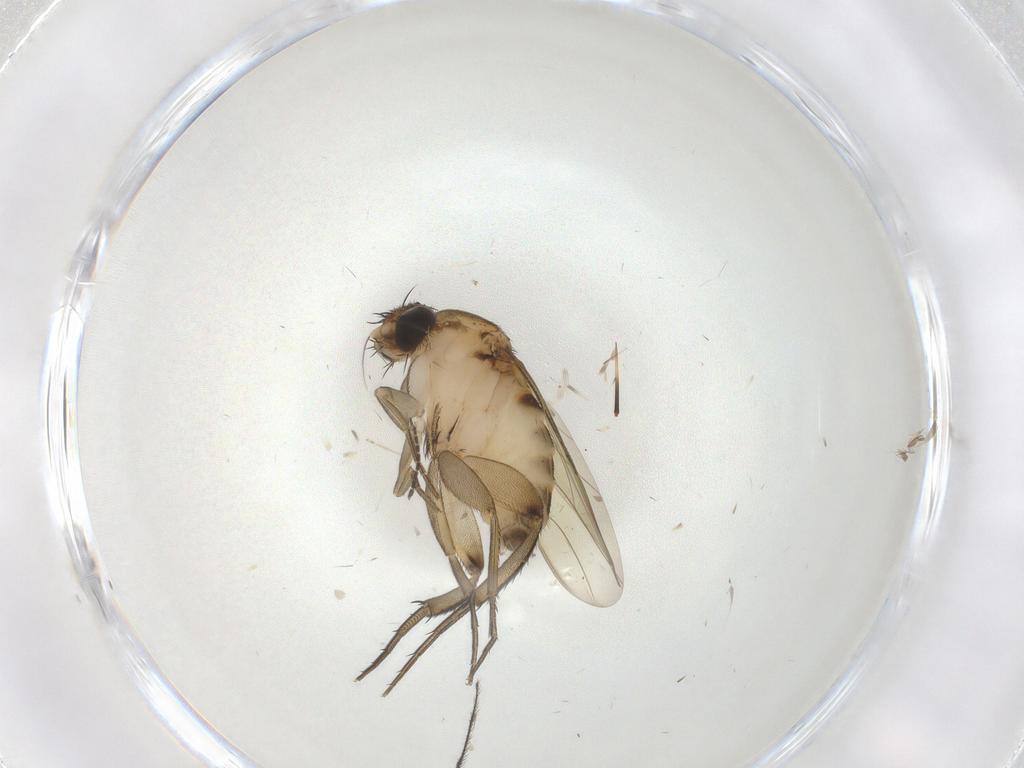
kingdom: Animalia
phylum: Arthropoda
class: Insecta
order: Diptera
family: Phoridae
